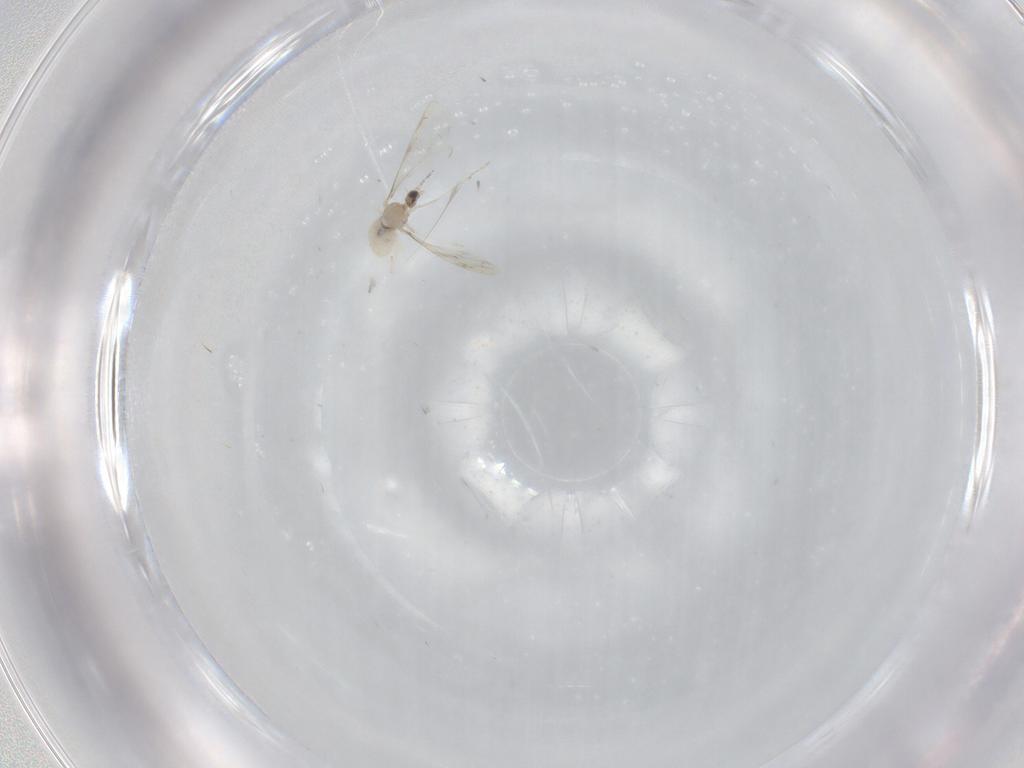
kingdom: Animalia
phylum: Arthropoda
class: Insecta
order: Diptera
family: Cecidomyiidae
